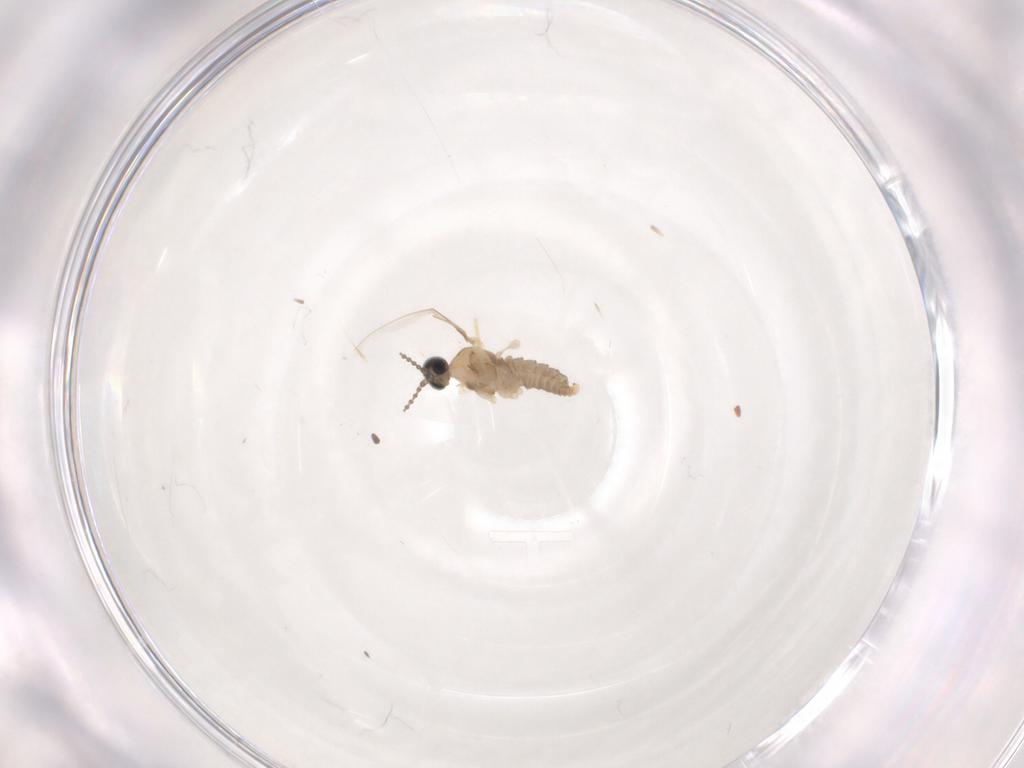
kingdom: Animalia
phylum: Arthropoda
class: Insecta
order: Diptera
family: Cecidomyiidae
